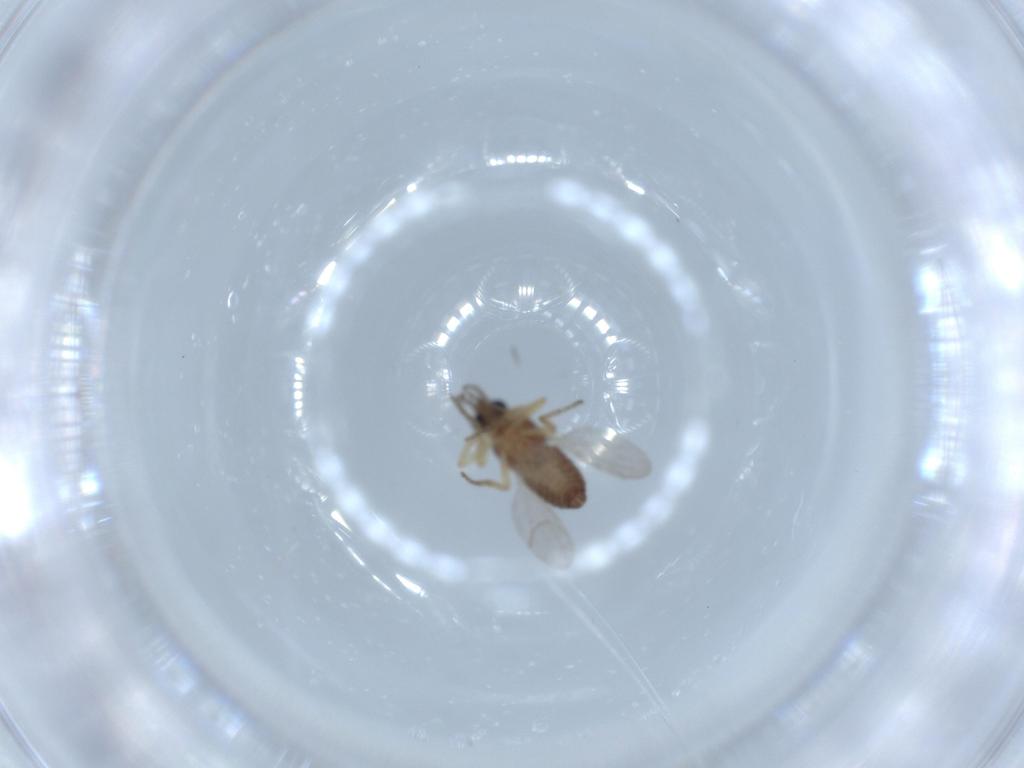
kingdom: Animalia
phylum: Arthropoda
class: Insecta
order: Diptera
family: Ceratopogonidae
